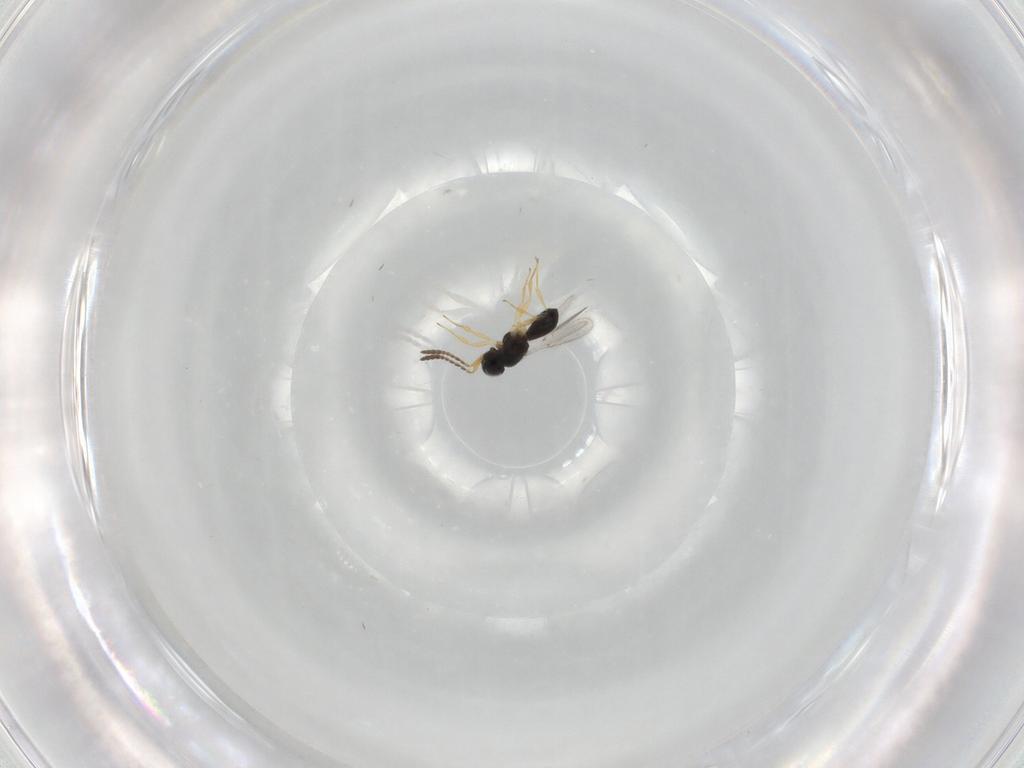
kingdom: Animalia
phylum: Arthropoda
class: Insecta
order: Hymenoptera
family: Scelionidae
